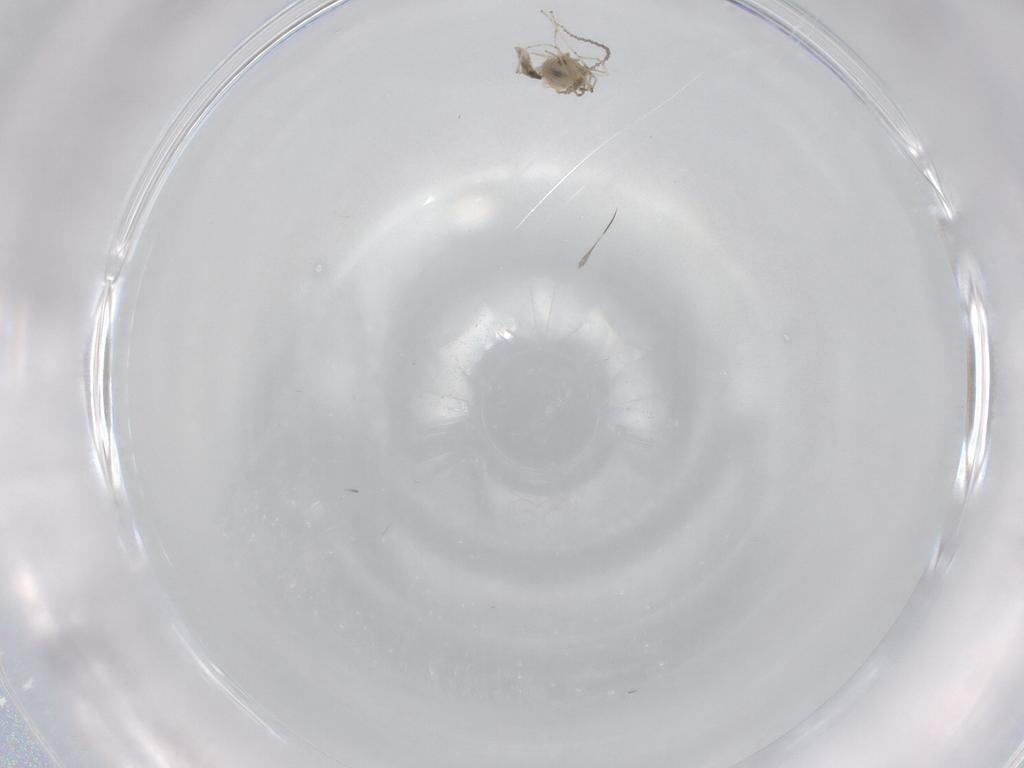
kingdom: Animalia
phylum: Arthropoda
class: Insecta
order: Diptera
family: Cecidomyiidae
